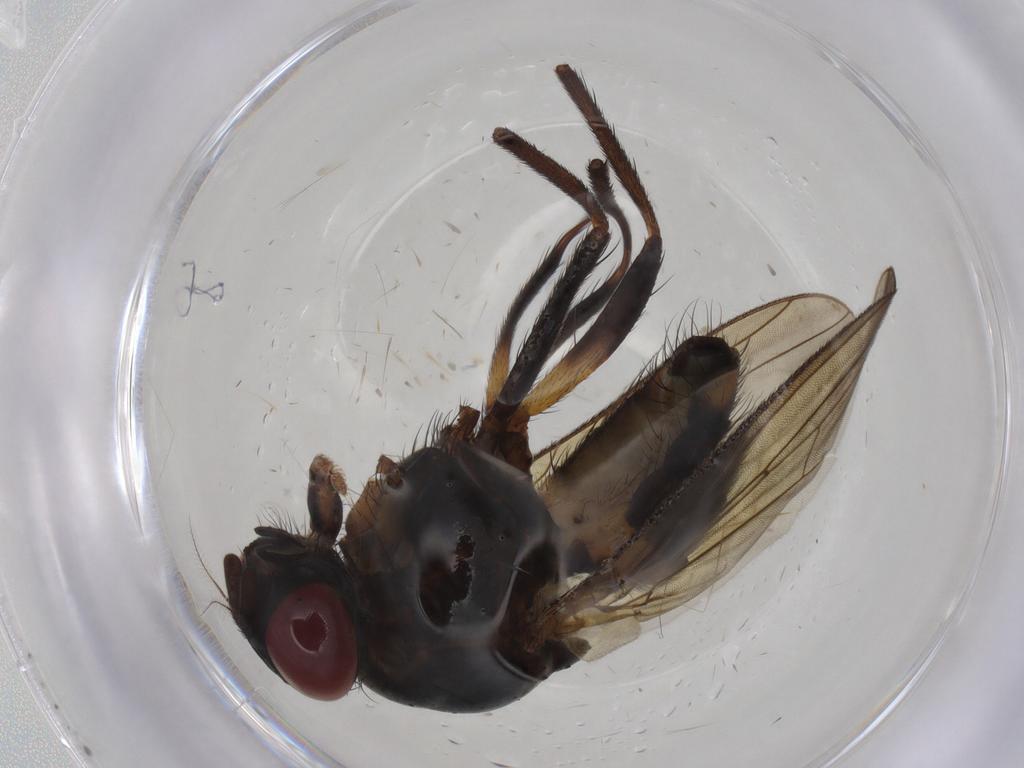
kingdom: Animalia
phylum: Arthropoda
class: Insecta
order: Diptera
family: Anthomyiidae
